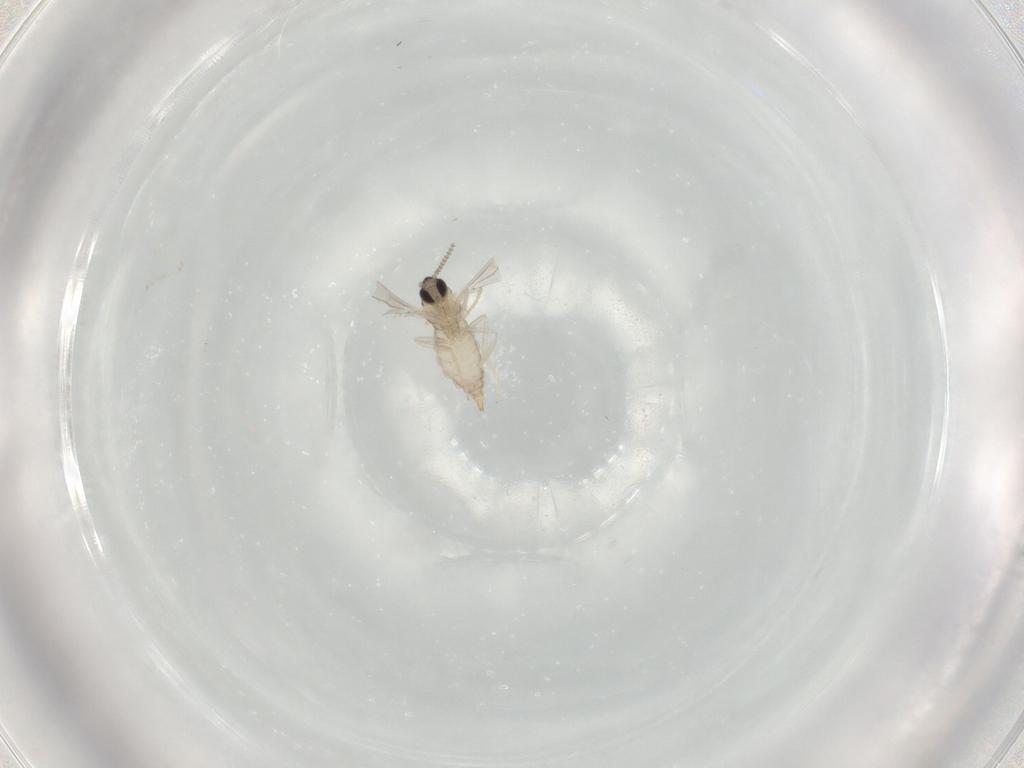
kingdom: Animalia
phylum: Arthropoda
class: Insecta
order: Diptera
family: Cecidomyiidae
